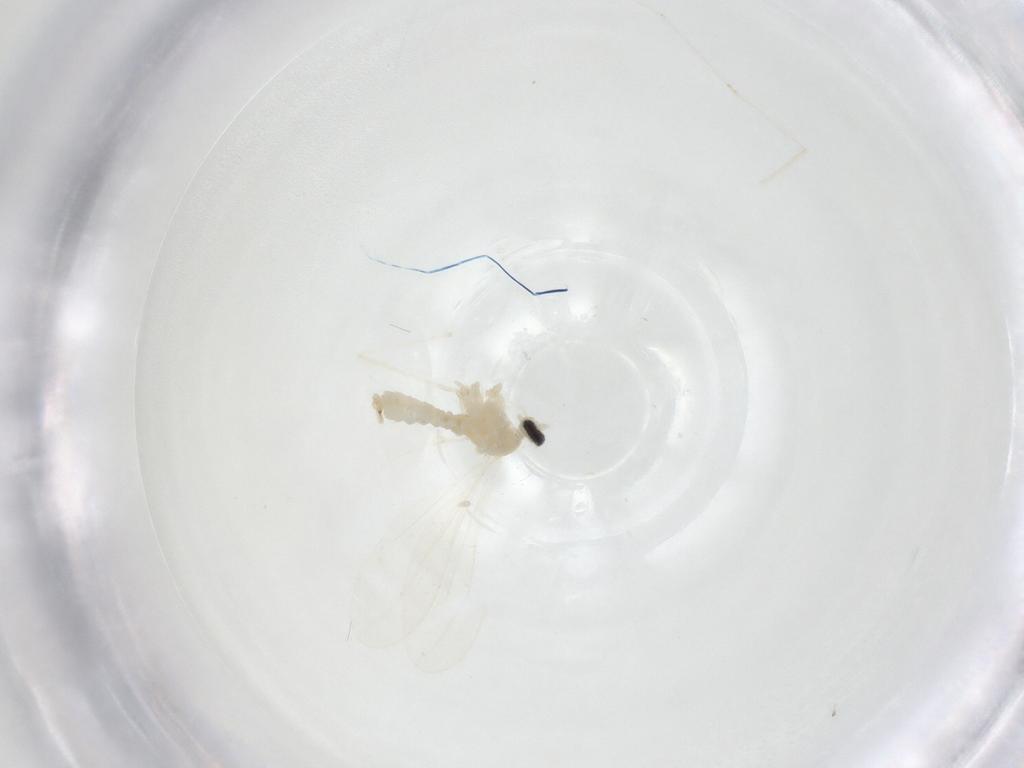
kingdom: Animalia
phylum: Arthropoda
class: Insecta
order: Diptera
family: Cecidomyiidae
